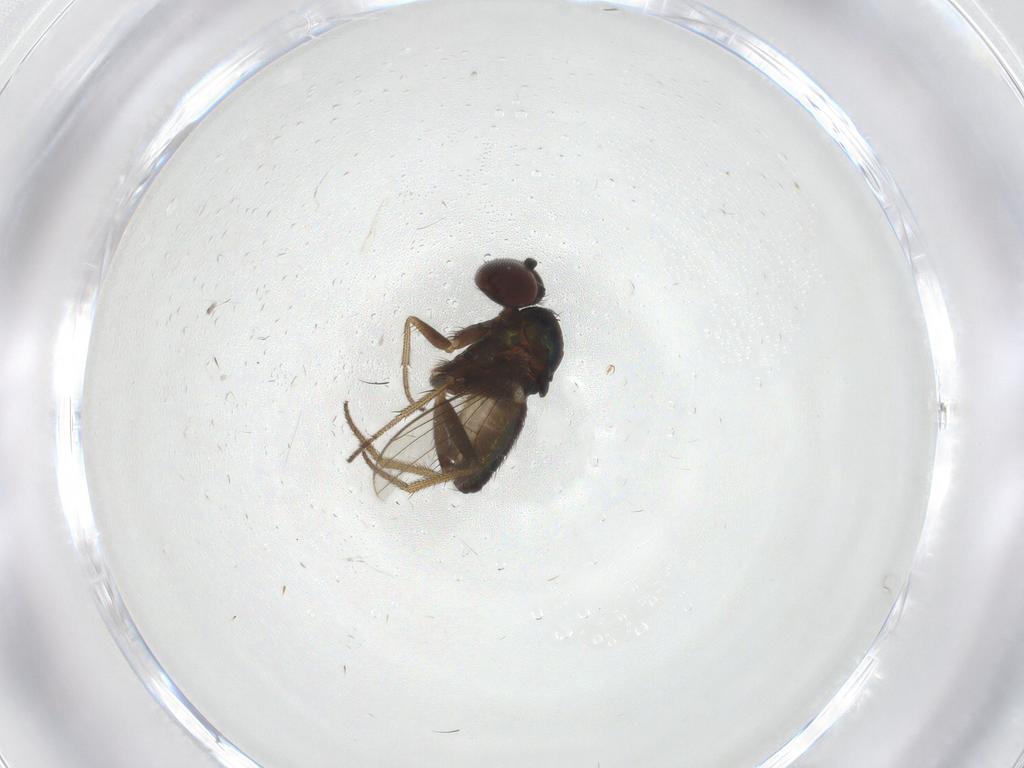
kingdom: Animalia
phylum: Arthropoda
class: Insecta
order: Diptera
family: Dolichopodidae
